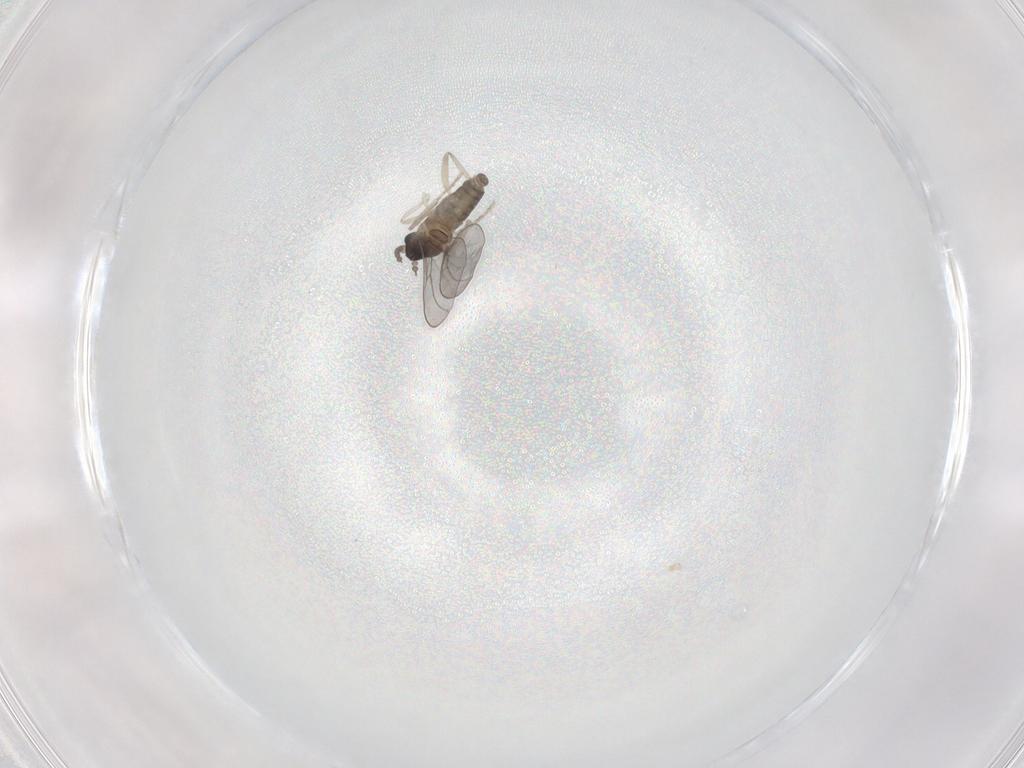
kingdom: Animalia
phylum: Arthropoda
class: Insecta
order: Diptera
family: Cecidomyiidae
